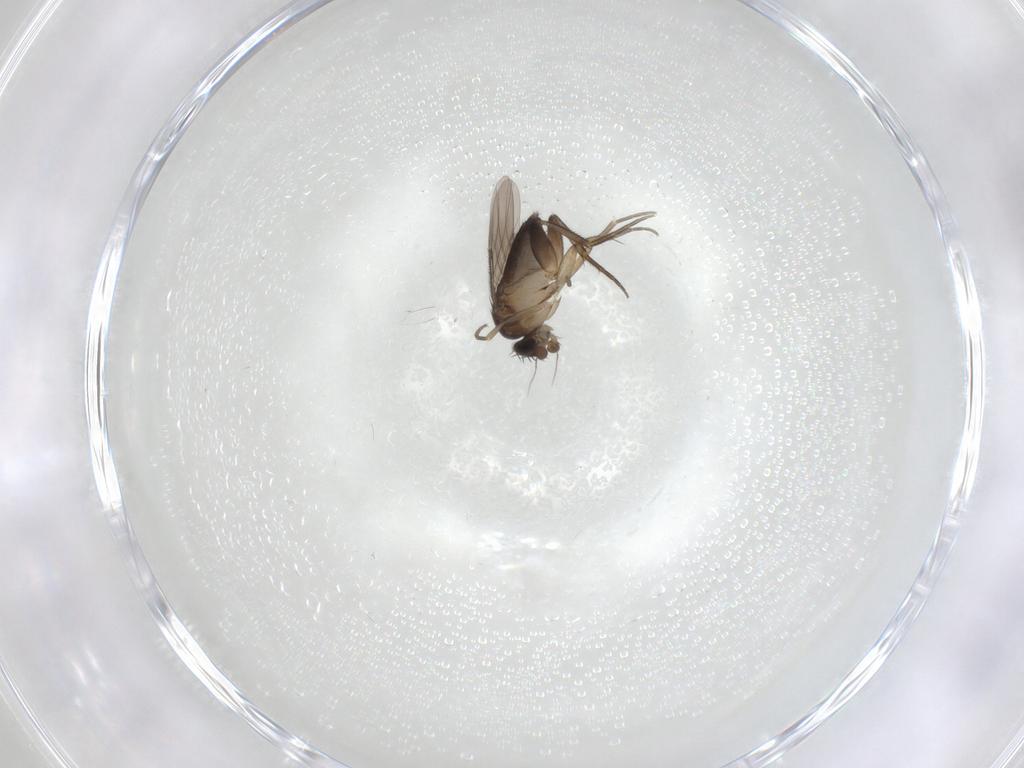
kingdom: Animalia
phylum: Arthropoda
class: Insecta
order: Diptera
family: Phoridae
